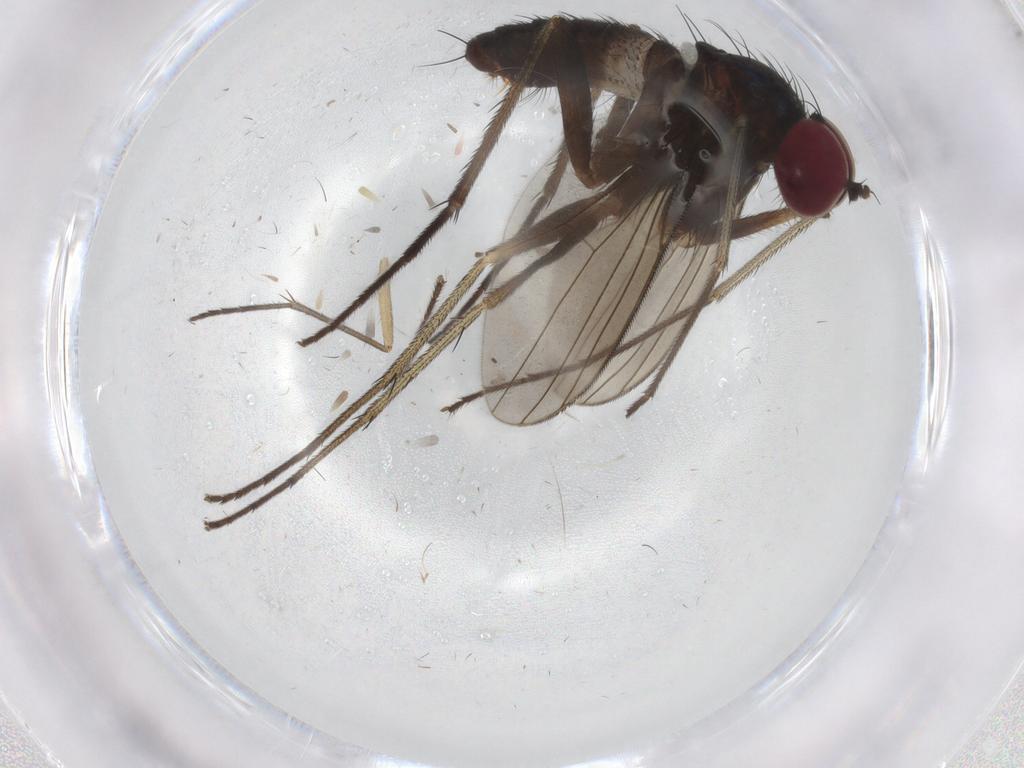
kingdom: Animalia
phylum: Arthropoda
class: Insecta
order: Diptera
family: Dolichopodidae
